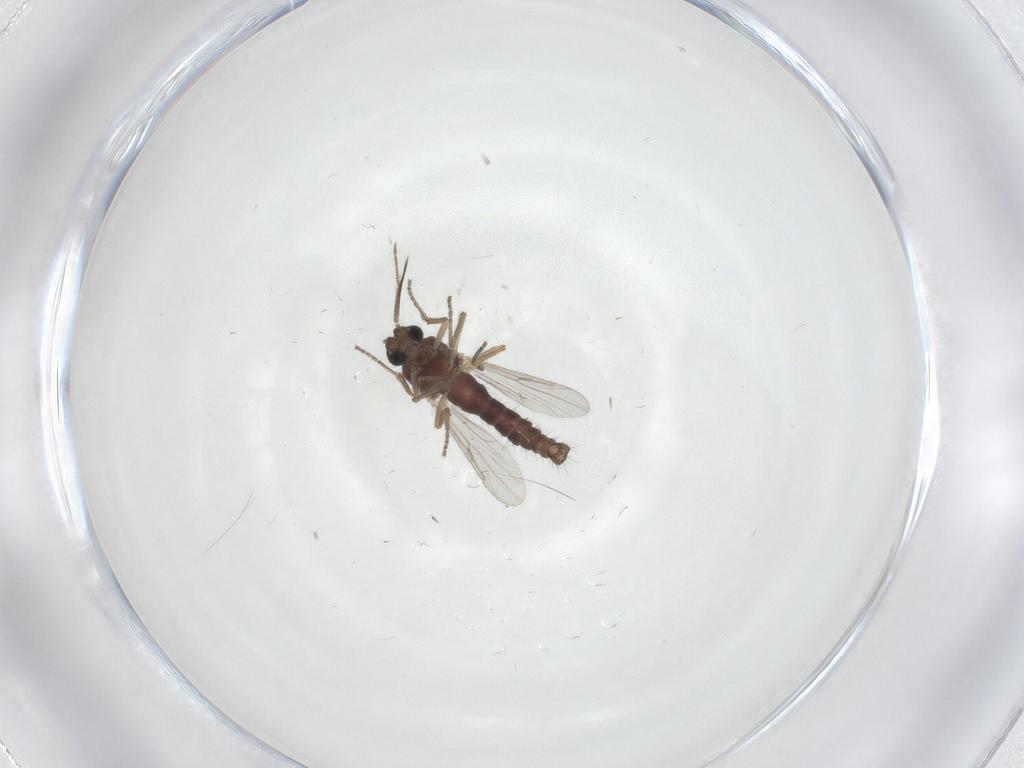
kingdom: Animalia
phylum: Arthropoda
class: Insecta
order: Diptera
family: Ceratopogonidae
